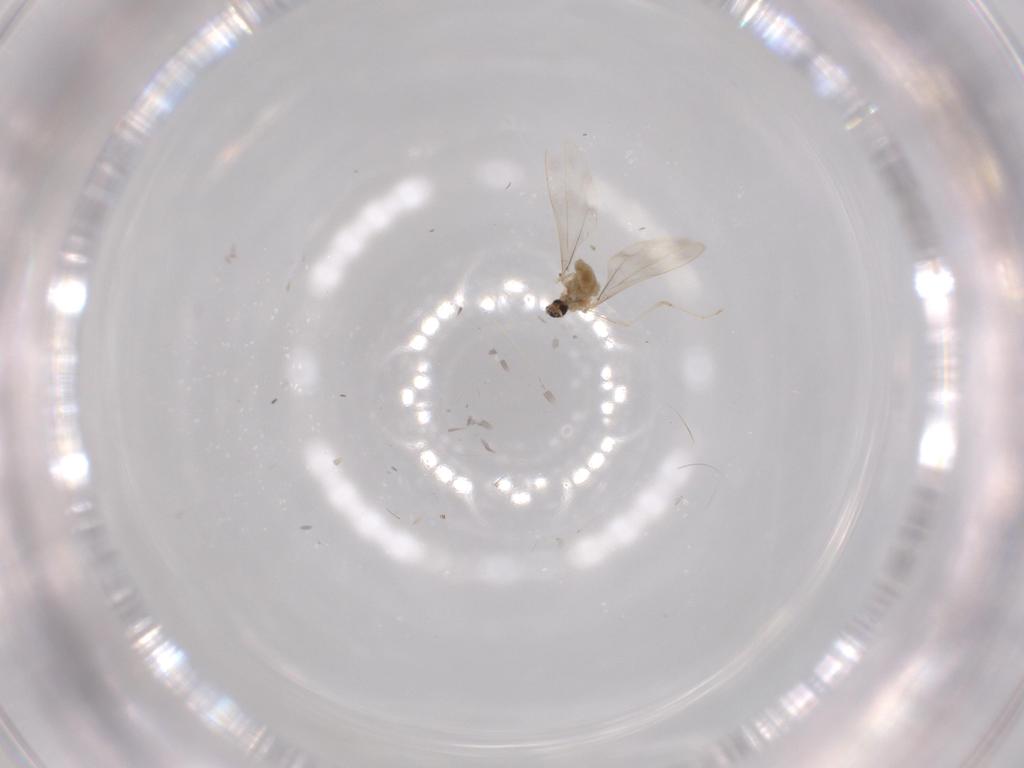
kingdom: Animalia
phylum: Arthropoda
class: Insecta
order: Diptera
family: Cecidomyiidae
